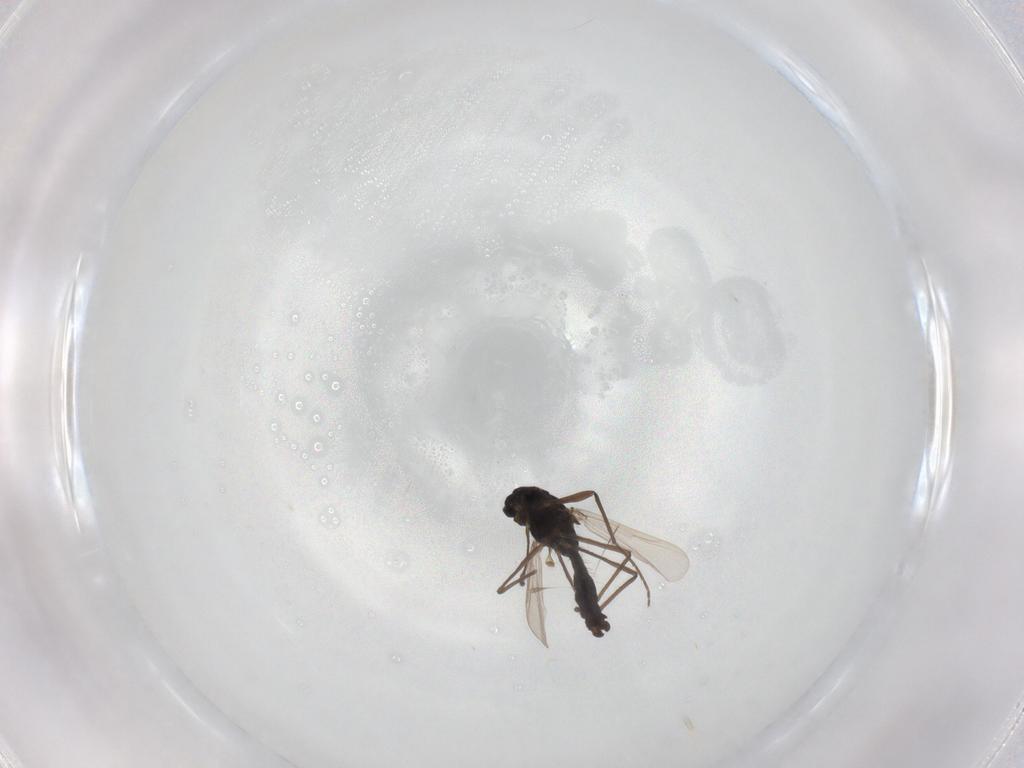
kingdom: Animalia
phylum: Arthropoda
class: Insecta
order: Diptera
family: Chironomidae
